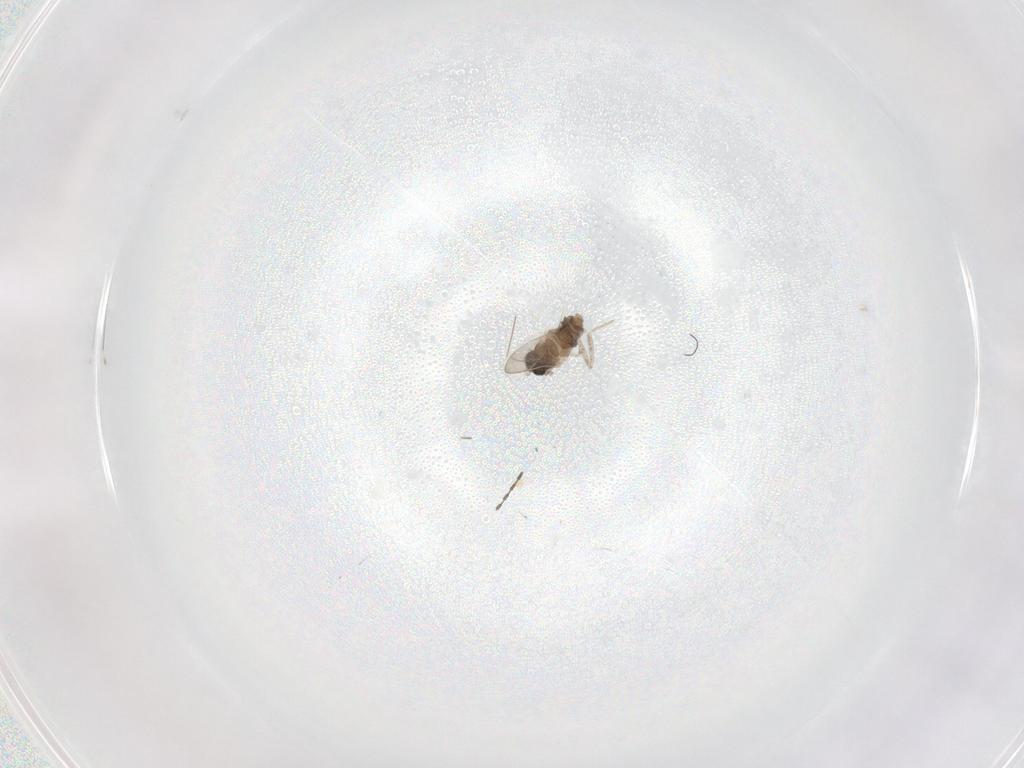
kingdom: Animalia
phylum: Arthropoda
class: Insecta
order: Diptera
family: Cecidomyiidae
